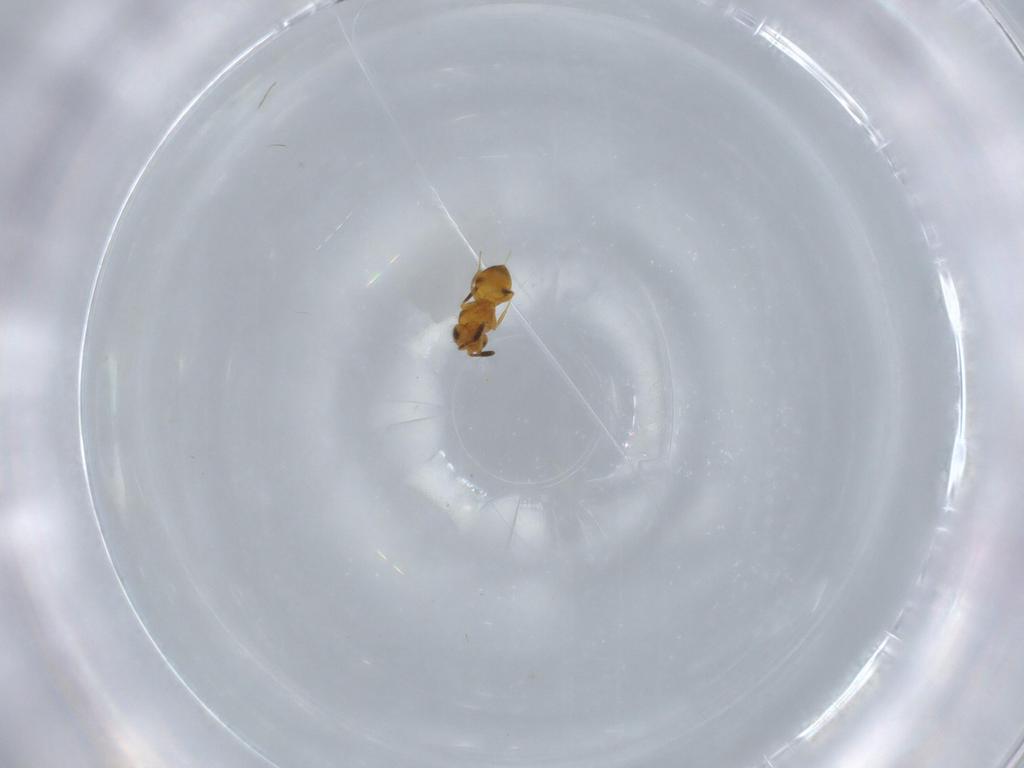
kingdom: Animalia
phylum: Arthropoda
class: Insecta
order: Hymenoptera
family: Scelionidae
